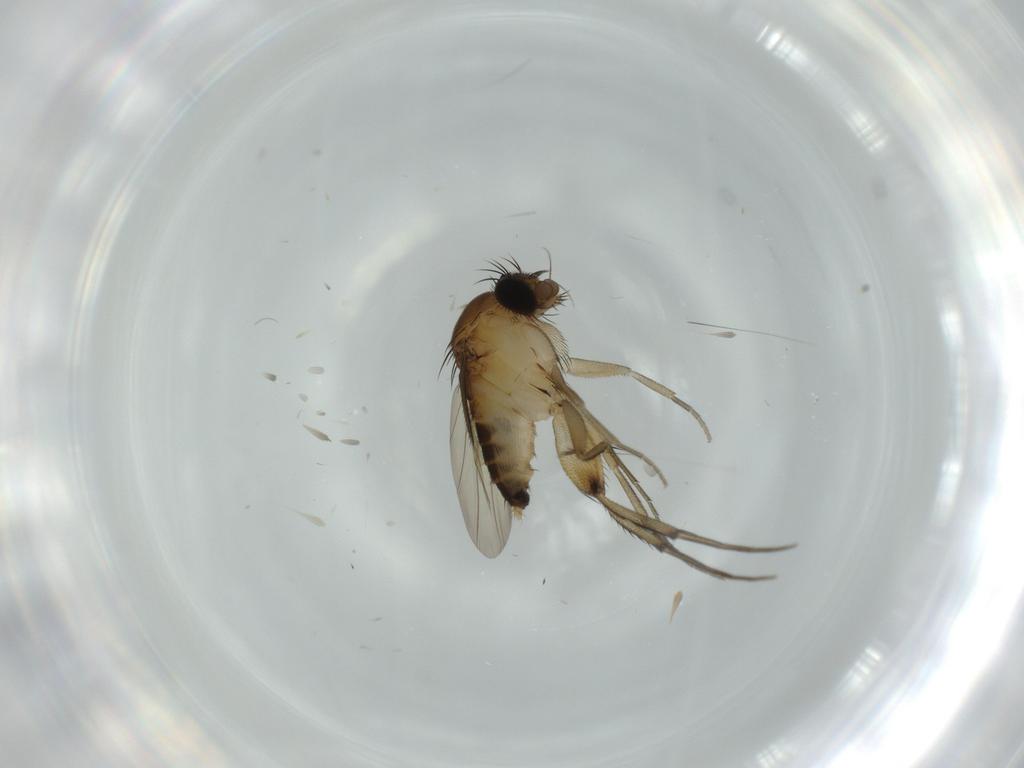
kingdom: Animalia
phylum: Arthropoda
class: Insecta
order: Diptera
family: Phoridae
